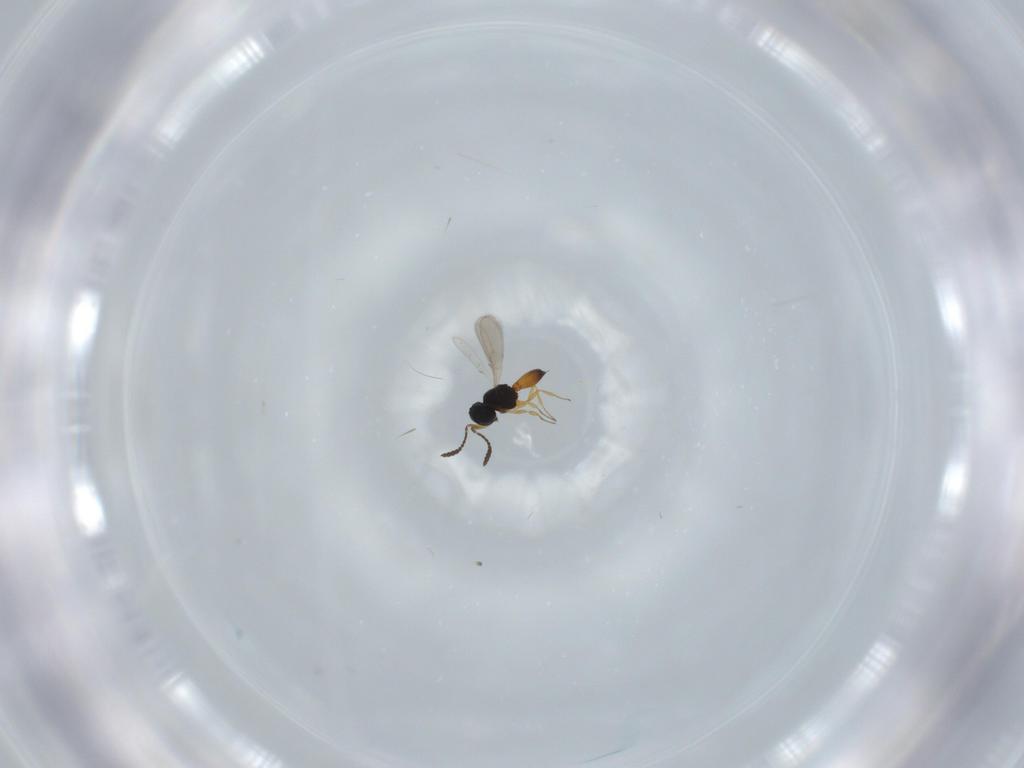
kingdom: Animalia
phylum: Arthropoda
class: Insecta
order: Hymenoptera
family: Scelionidae
